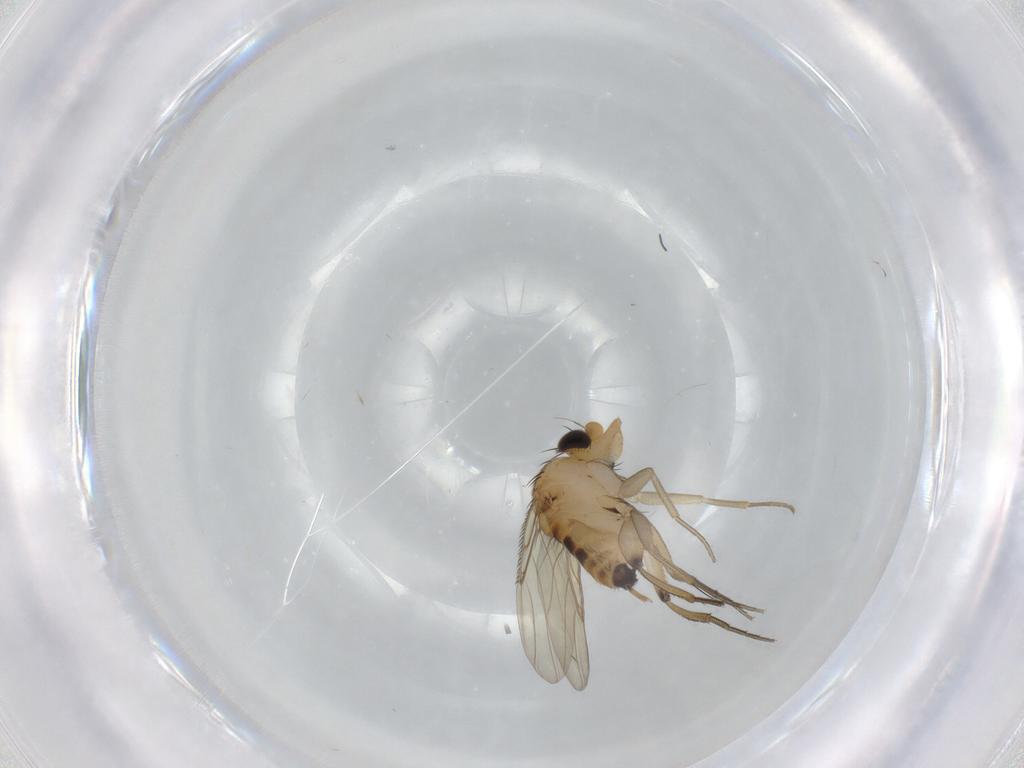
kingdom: Animalia
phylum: Arthropoda
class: Insecta
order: Diptera
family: Phoridae
